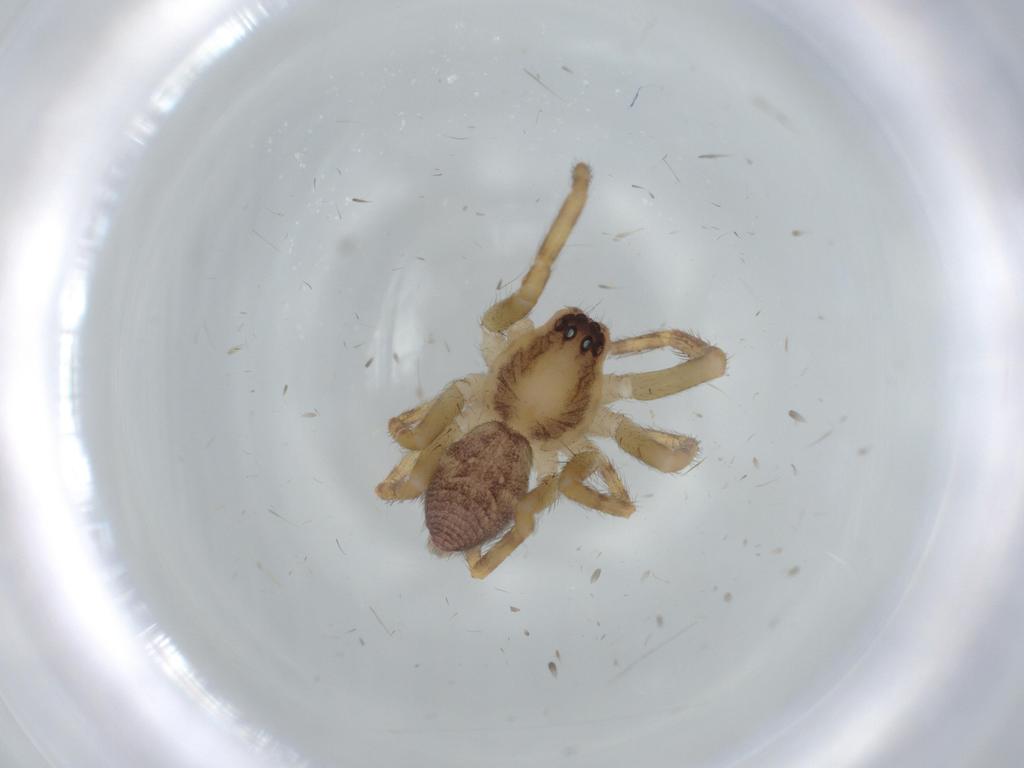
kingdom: Animalia
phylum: Arthropoda
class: Arachnida
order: Araneae
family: Corinnidae
